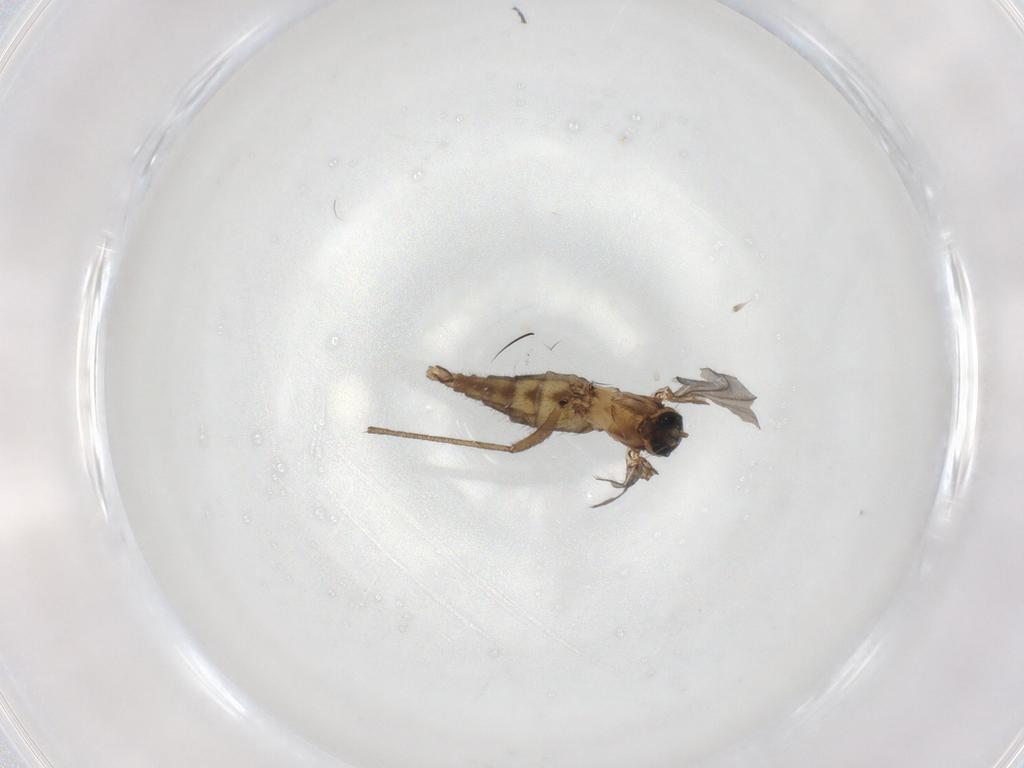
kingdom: Animalia
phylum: Arthropoda
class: Insecta
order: Diptera
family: Sciaridae
